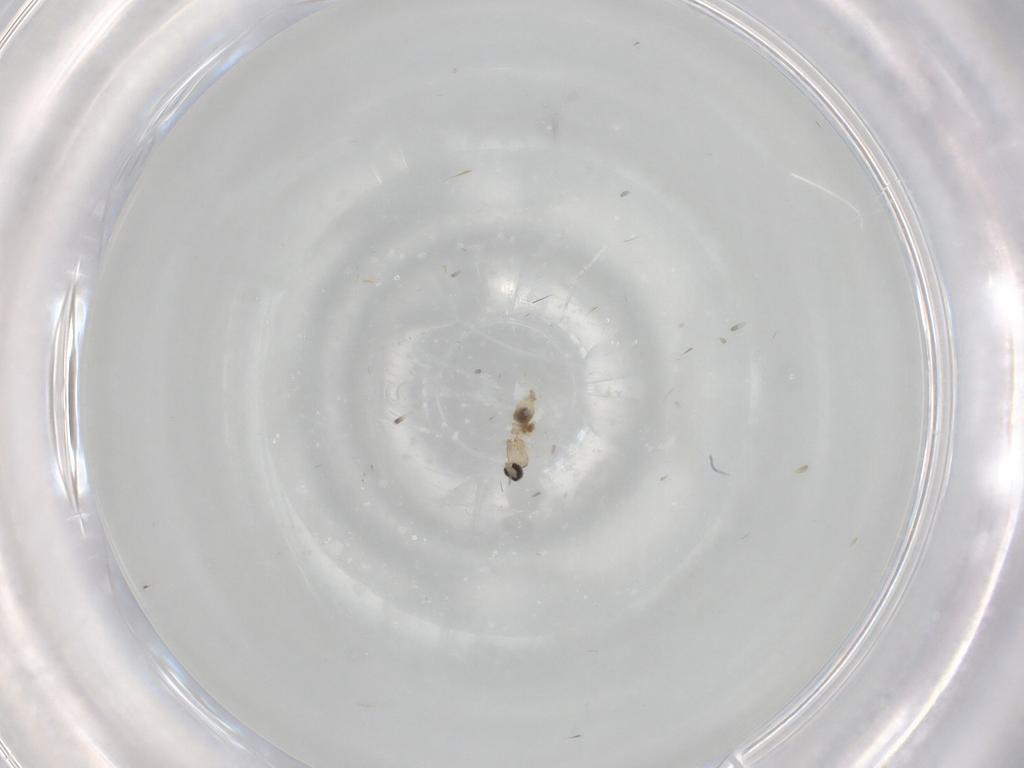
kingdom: Animalia
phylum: Arthropoda
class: Insecta
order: Diptera
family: Cecidomyiidae
